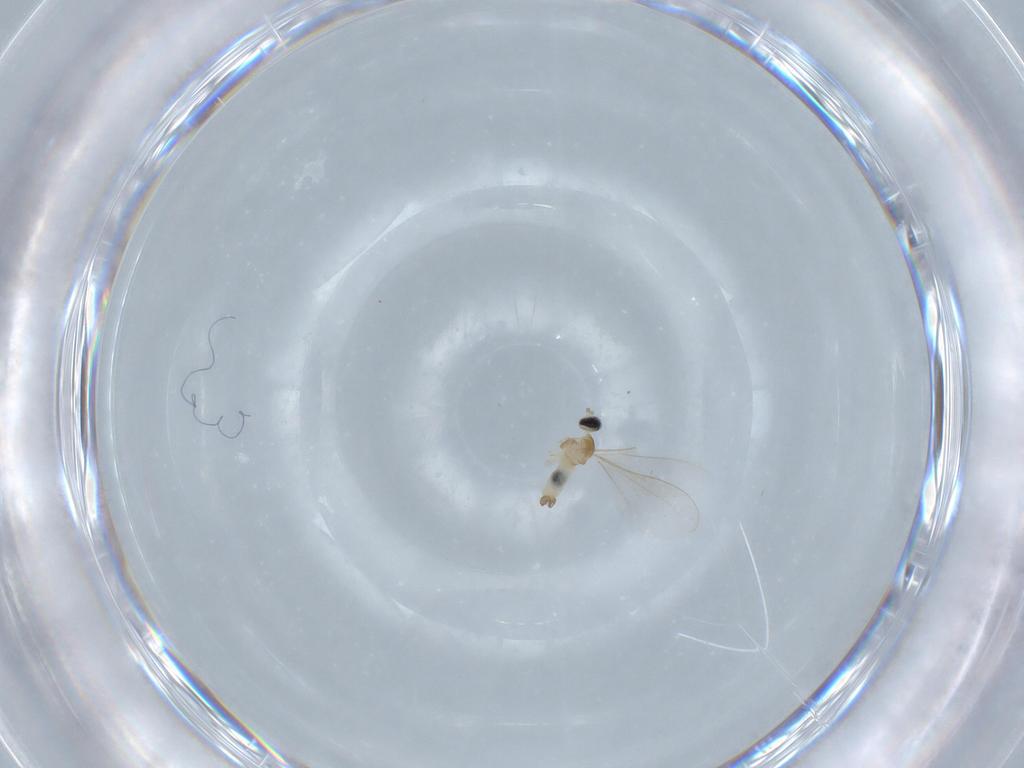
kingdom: Animalia
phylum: Arthropoda
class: Insecta
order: Diptera
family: Cecidomyiidae
